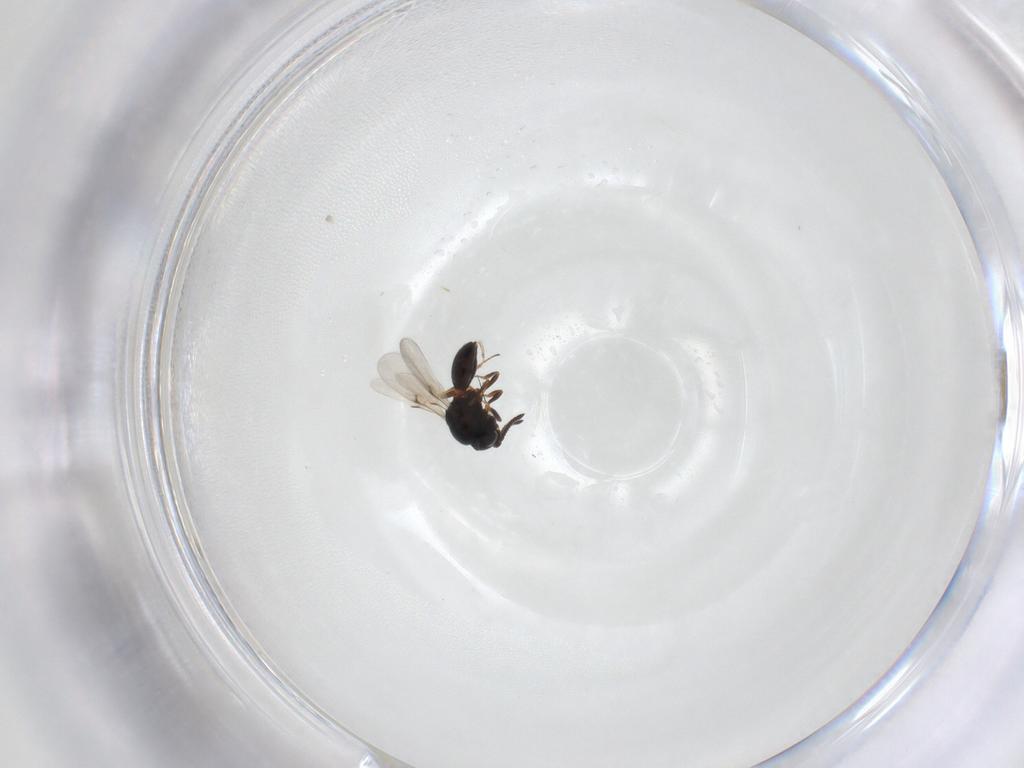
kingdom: Animalia
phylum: Arthropoda
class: Arachnida
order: Araneae
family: Pholcidae
